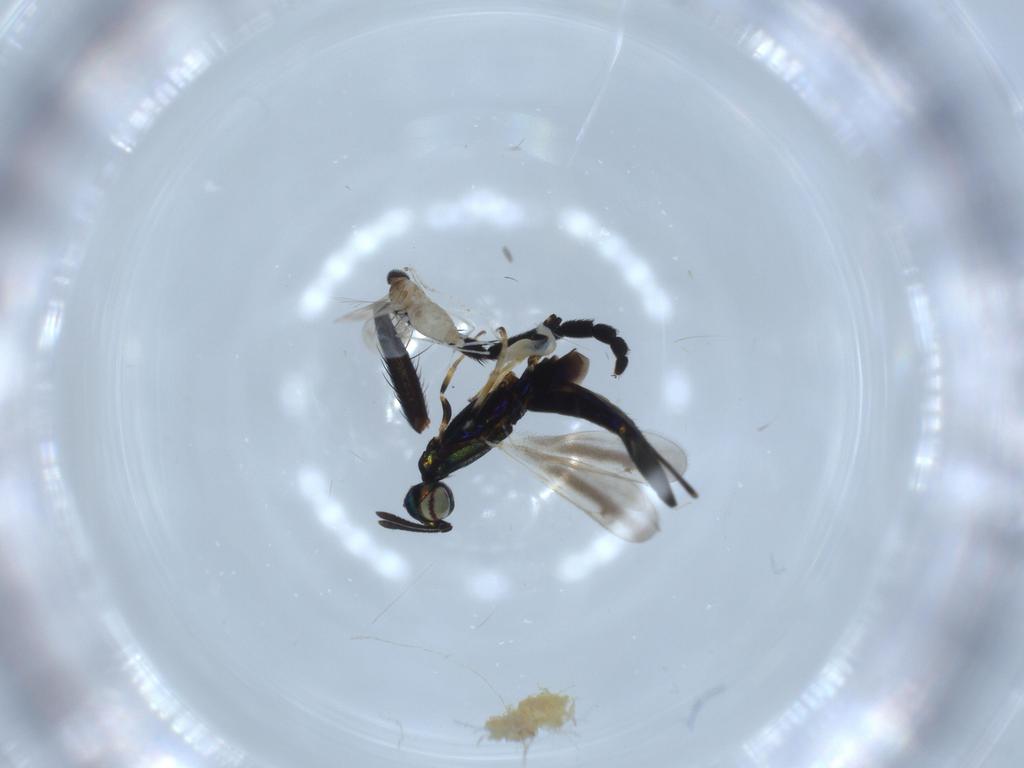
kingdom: Animalia
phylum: Arthropoda
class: Insecta
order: Diptera
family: Cecidomyiidae
